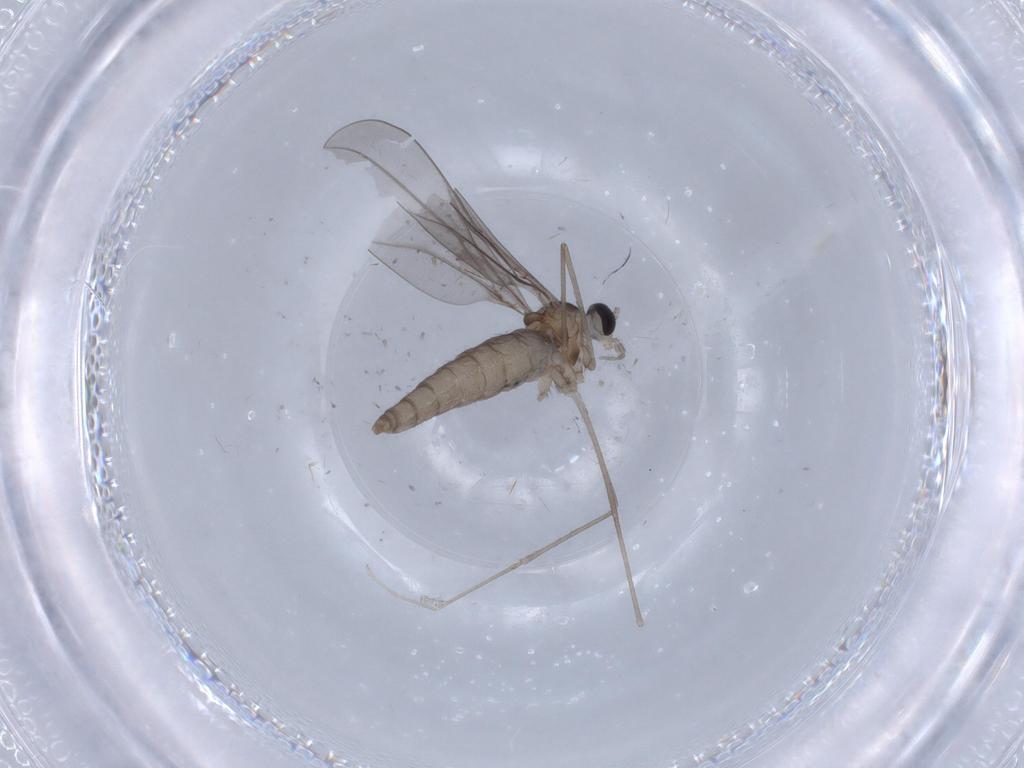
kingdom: Animalia
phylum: Arthropoda
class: Insecta
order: Diptera
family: Cecidomyiidae
